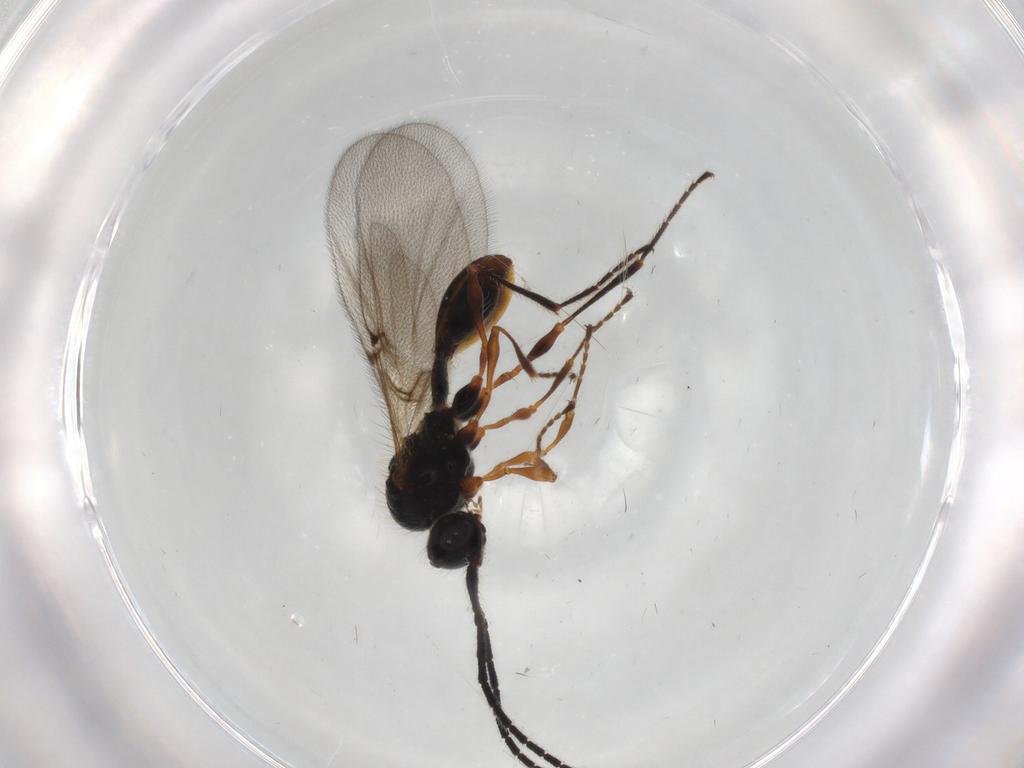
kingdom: Animalia
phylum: Arthropoda
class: Insecta
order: Hymenoptera
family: Diapriidae
